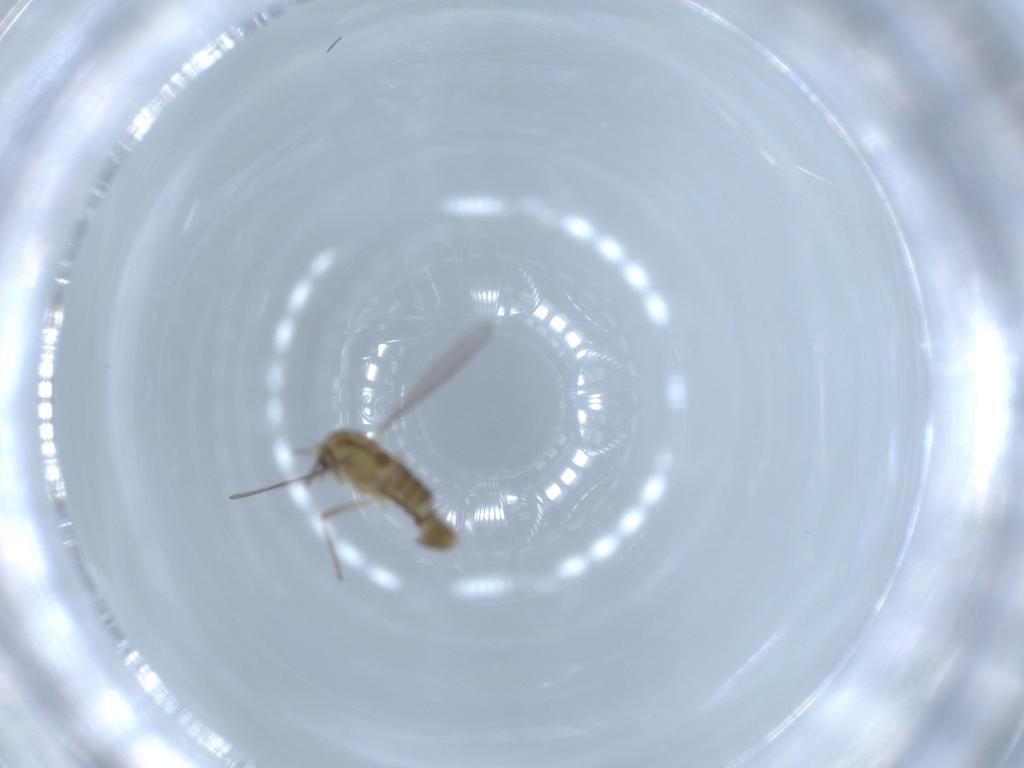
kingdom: Animalia
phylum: Arthropoda
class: Insecta
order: Diptera
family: Chironomidae
